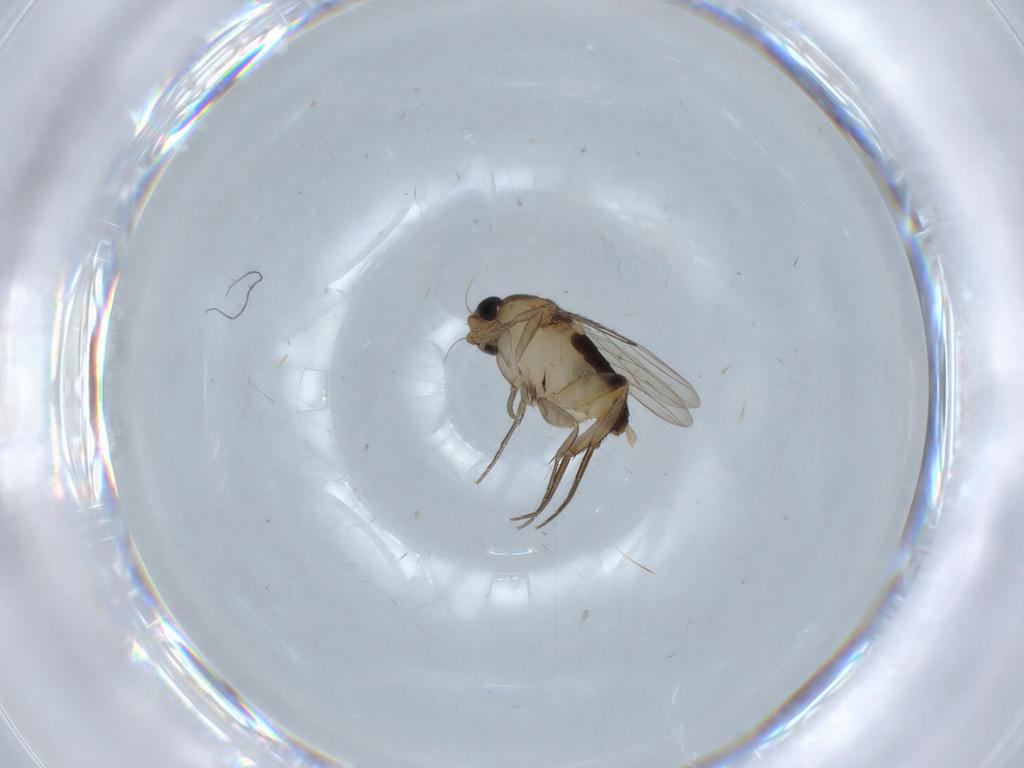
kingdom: Animalia
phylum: Arthropoda
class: Insecta
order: Diptera
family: Phoridae
